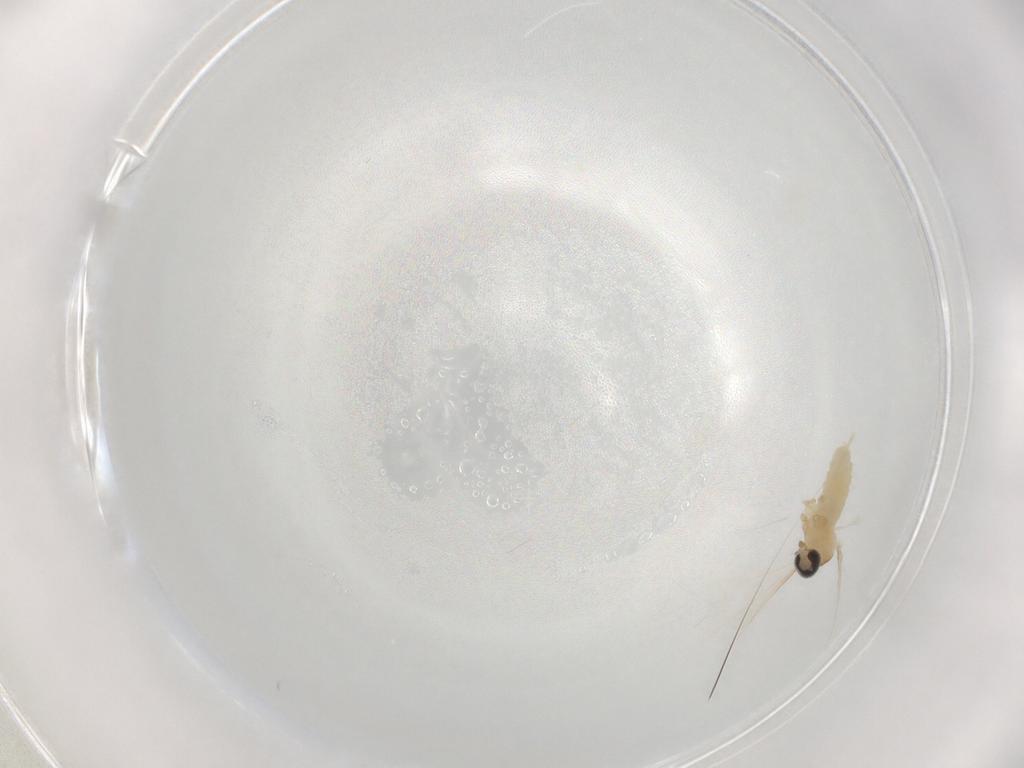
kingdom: Animalia
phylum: Arthropoda
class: Insecta
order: Diptera
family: Cecidomyiidae
